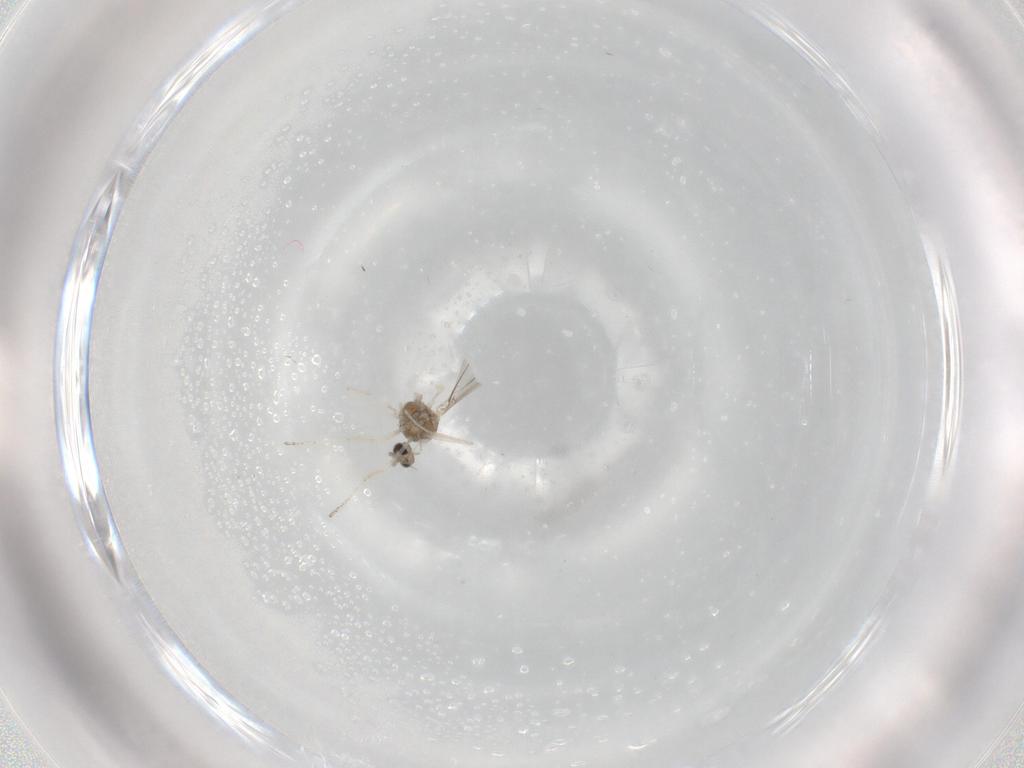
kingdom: Animalia
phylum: Arthropoda
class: Insecta
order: Diptera
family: Cecidomyiidae
